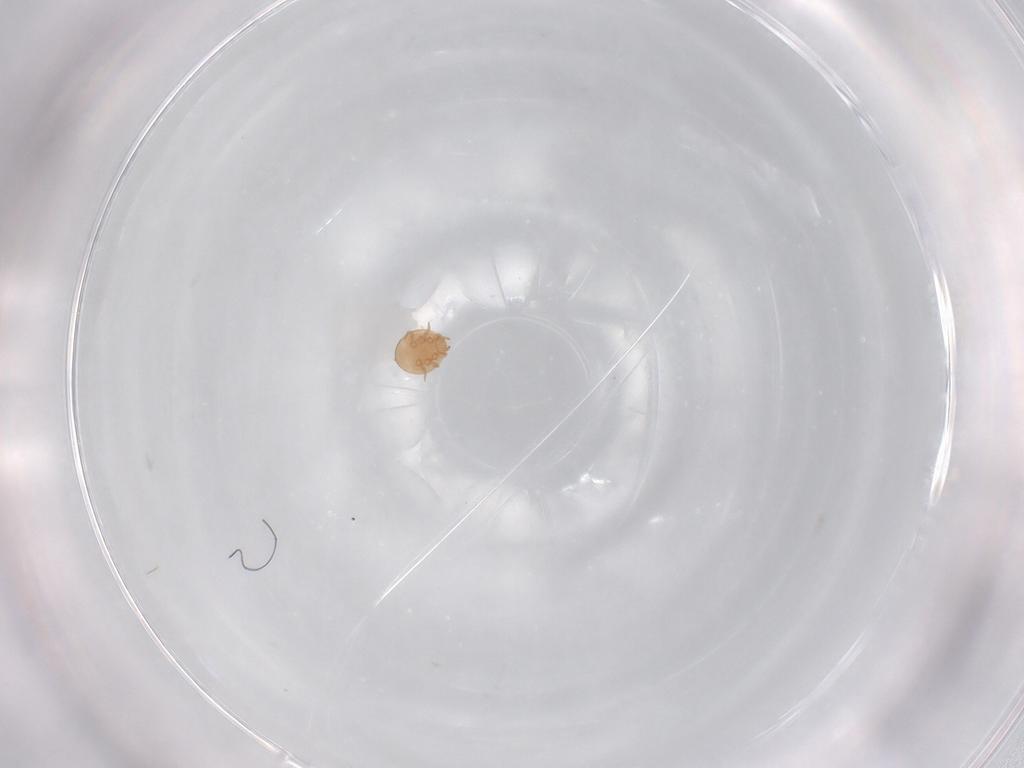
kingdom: Animalia
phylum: Arthropoda
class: Arachnida
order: Mesostigmata
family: Trematuridae
